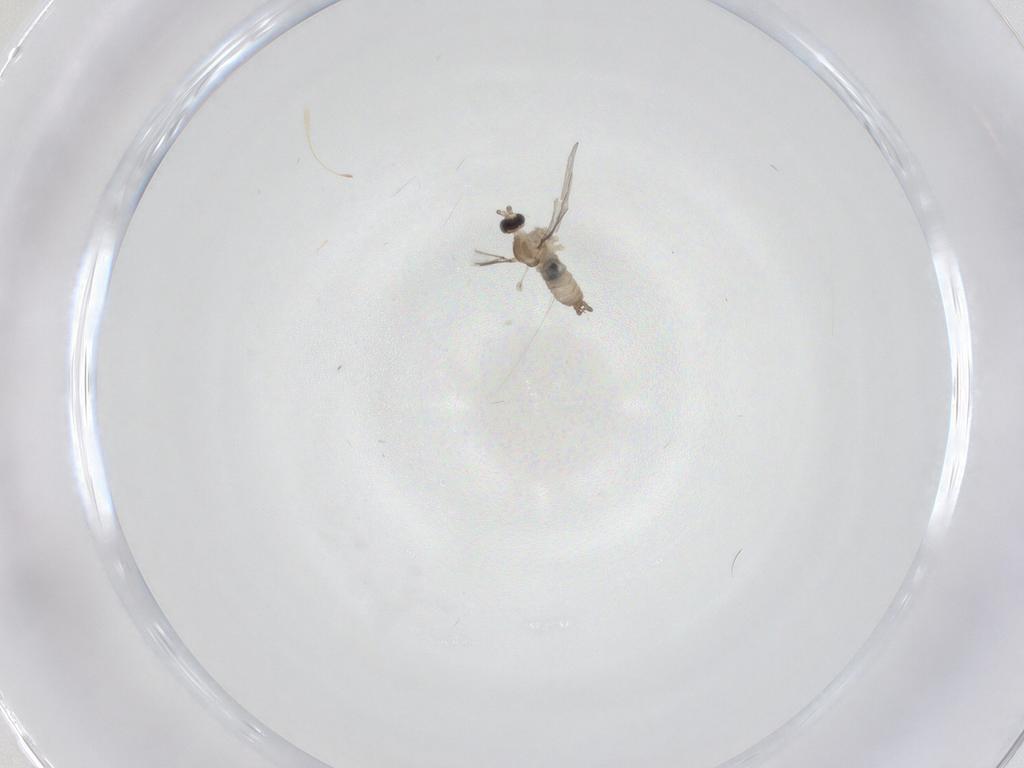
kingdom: Animalia
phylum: Arthropoda
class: Insecta
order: Diptera
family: Cecidomyiidae
